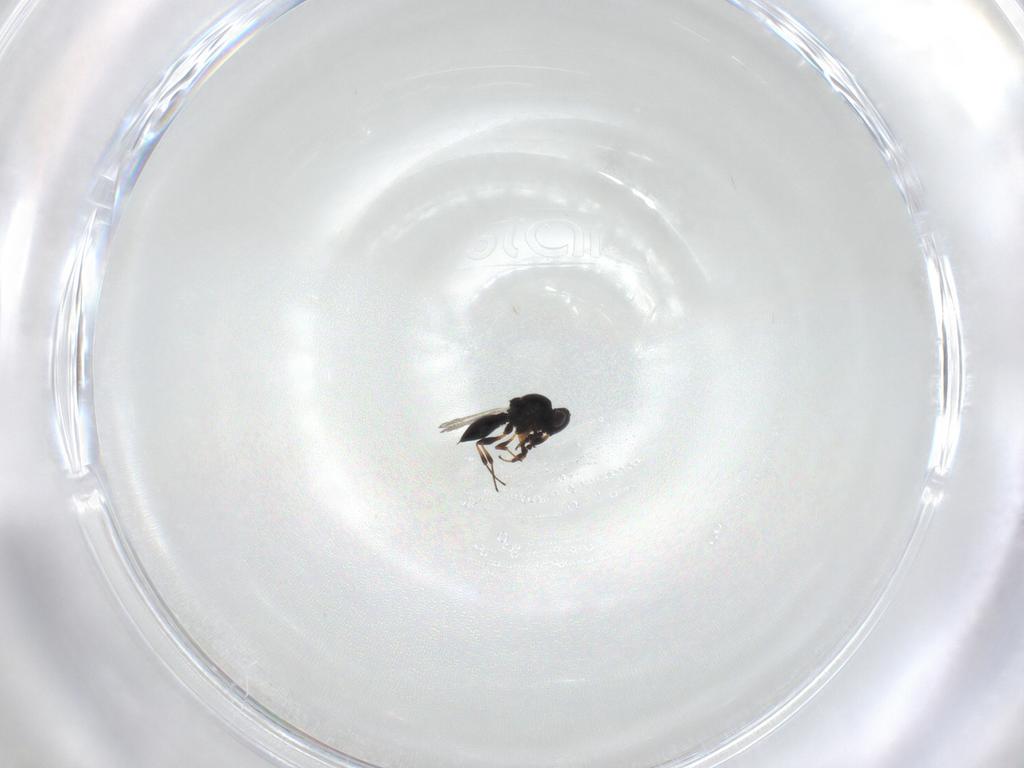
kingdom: Animalia
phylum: Arthropoda
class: Insecta
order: Hymenoptera
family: Platygastridae
